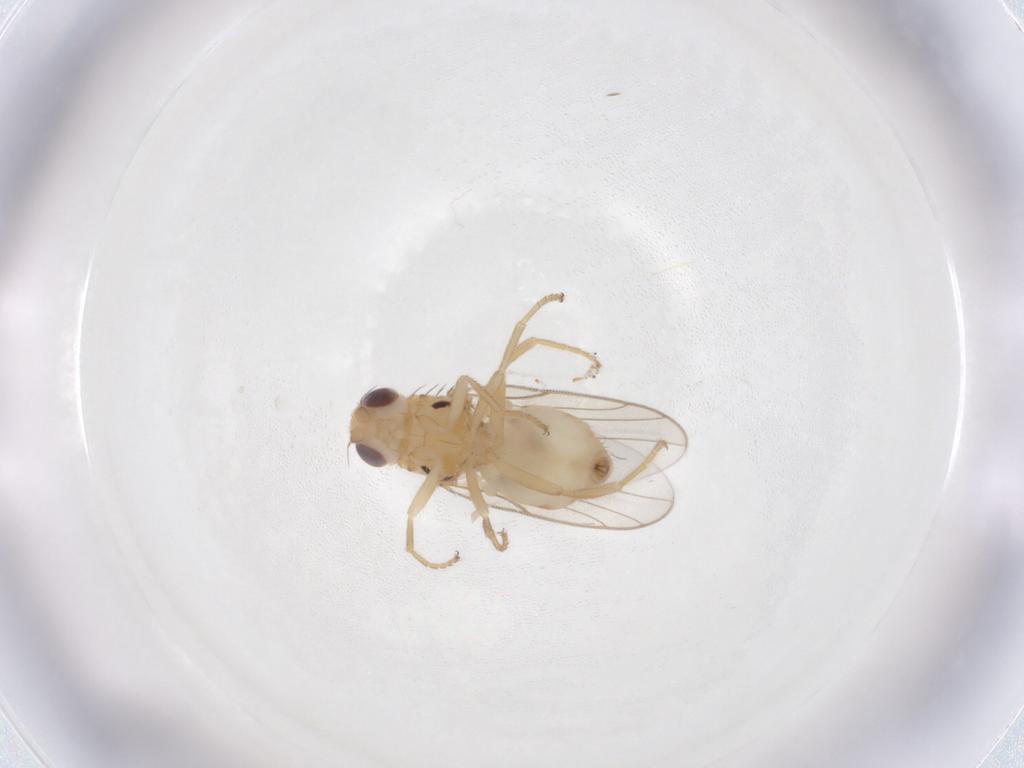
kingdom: Animalia
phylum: Arthropoda
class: Insecta
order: Diptera
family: Chloropidae
